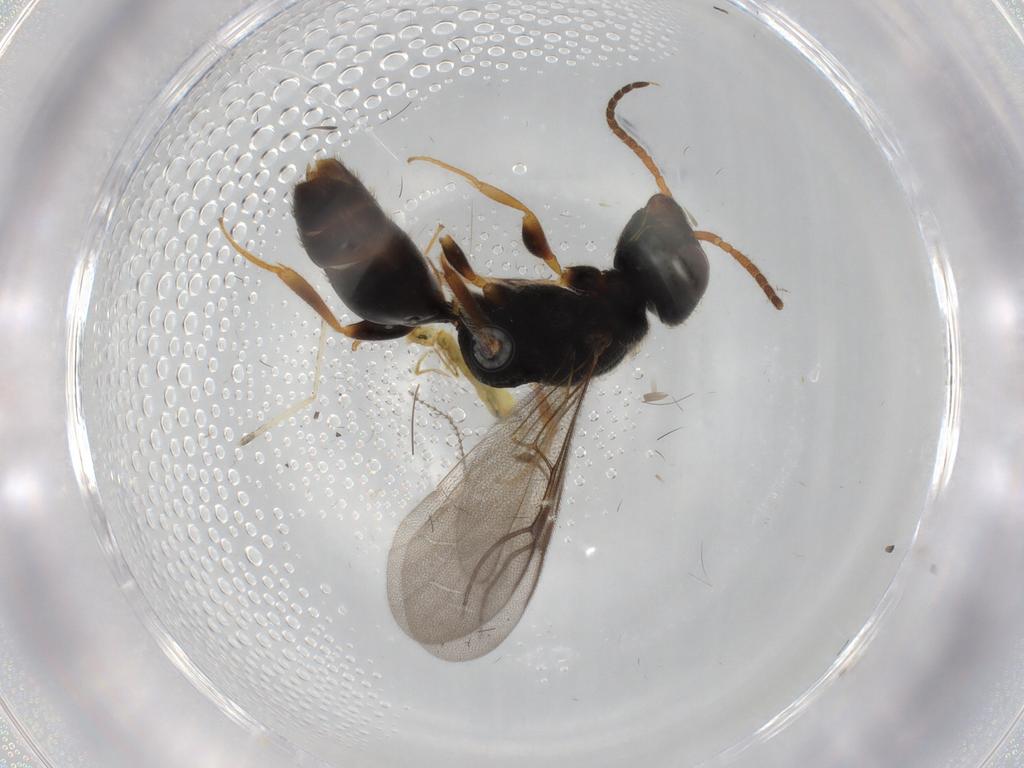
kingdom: Animalia
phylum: Arthropoda
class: Insecta
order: Hymenoptera
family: Bethylidae
